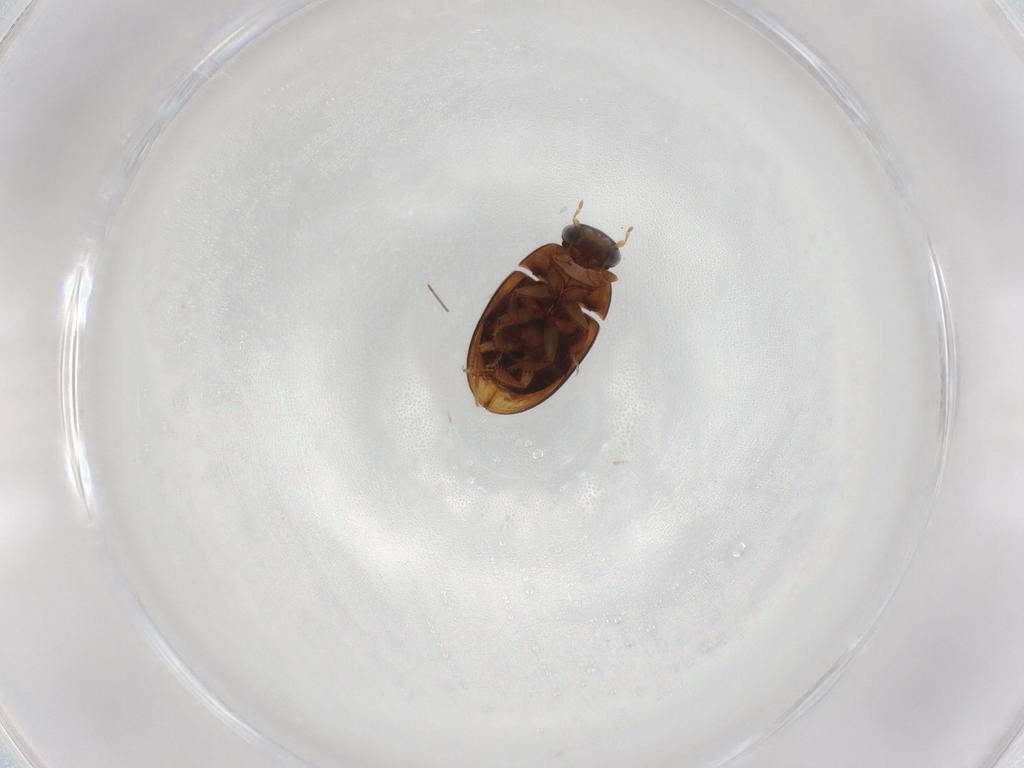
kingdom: Animalia
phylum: Arthropoda
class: Insecta
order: Coleoptera
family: Hydrophilidae
